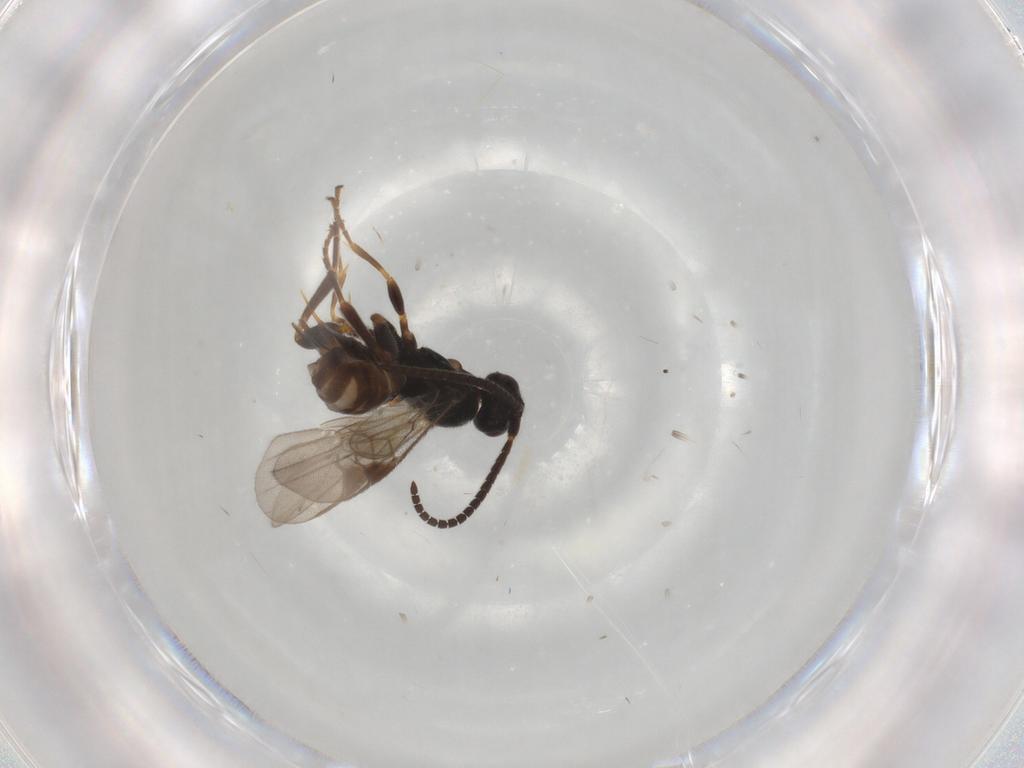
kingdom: Animalia
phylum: Arthropoda
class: Insecta
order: Hymenoptera
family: Braconidae
